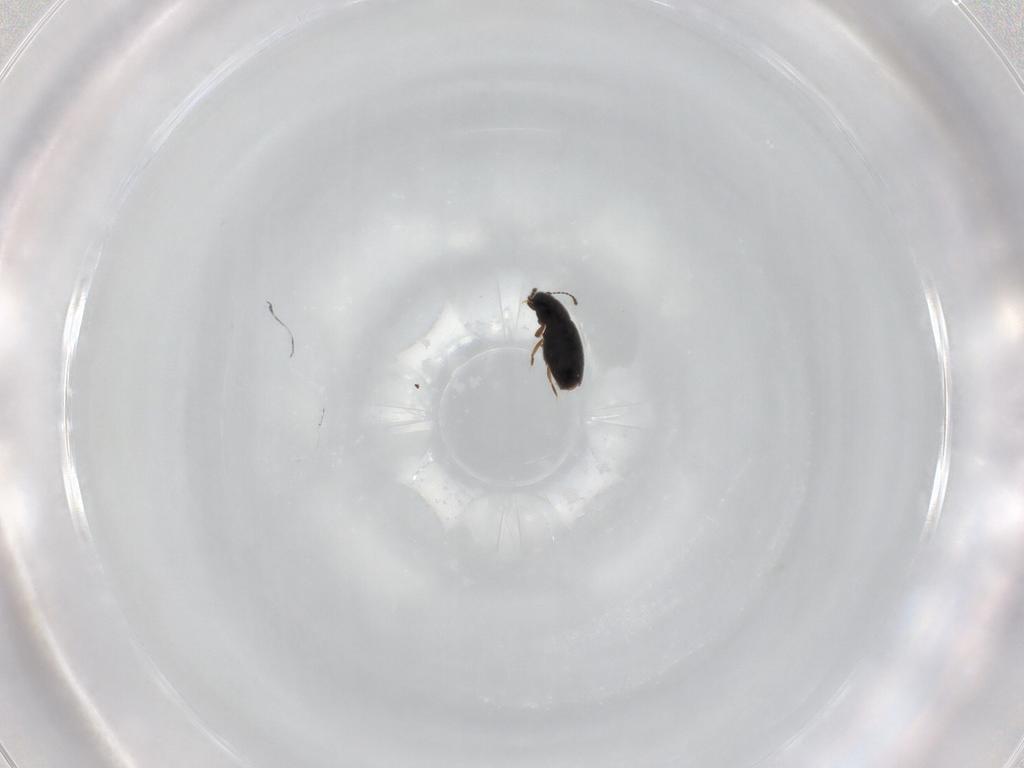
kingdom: Animalia
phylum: Arthropoda
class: Insecta
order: Coleoptera
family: Ptiliidae
